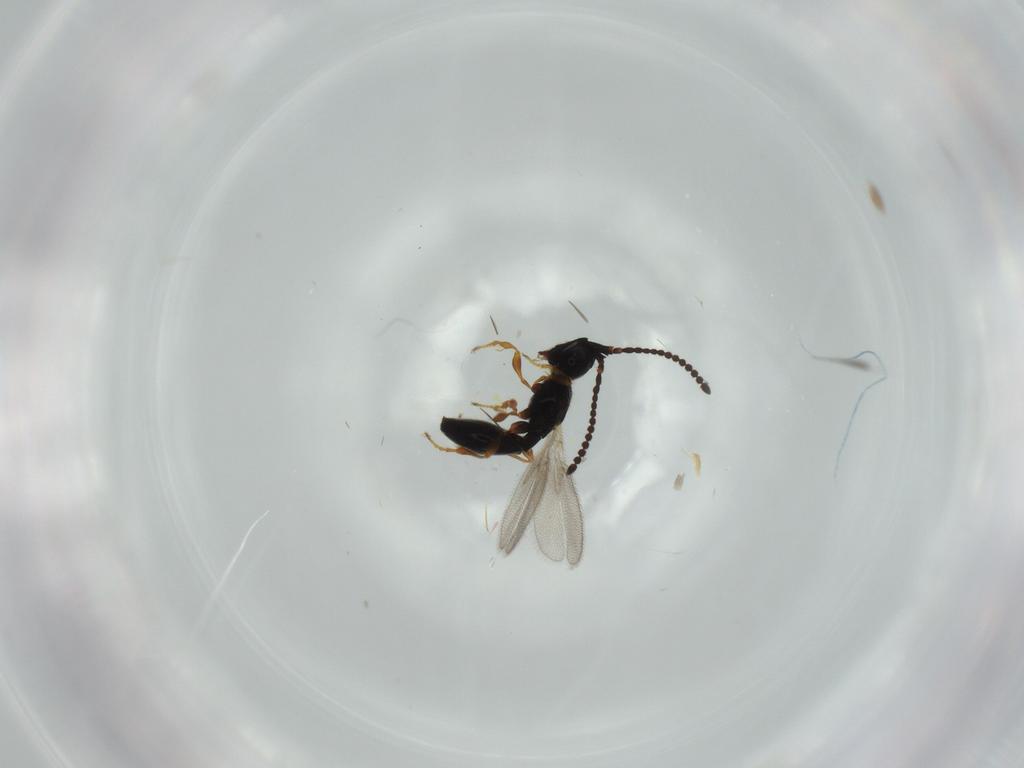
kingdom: Animalia
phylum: Arthropoda
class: Insecta
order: Hymenoptera
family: Diapriidae
